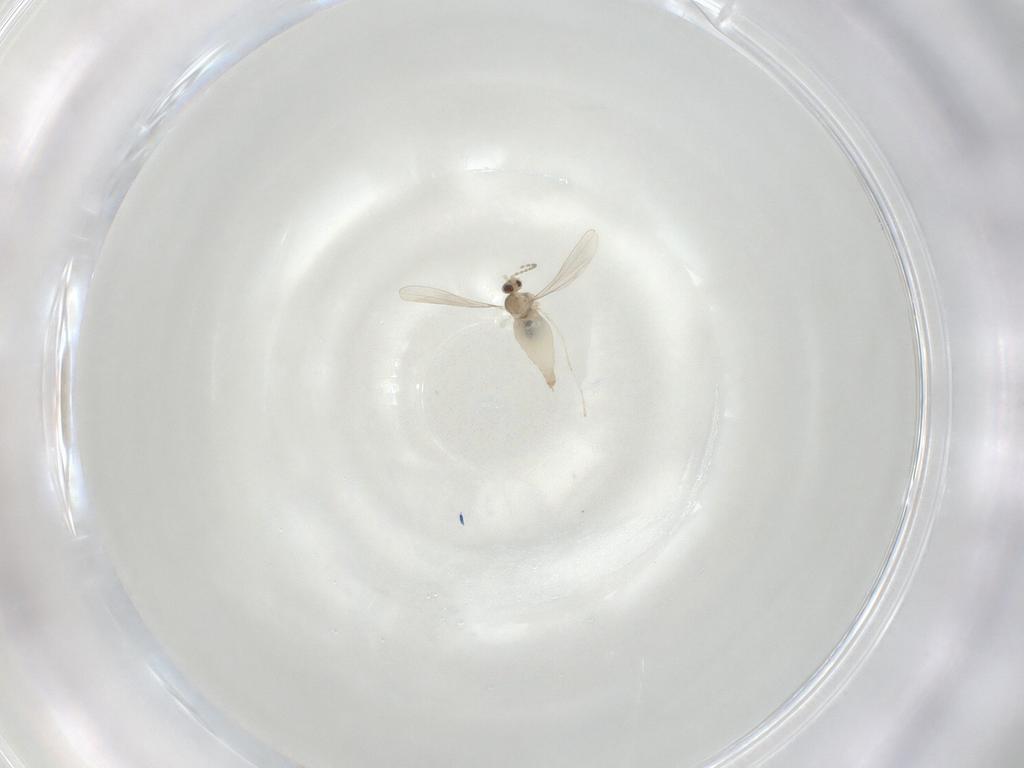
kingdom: Animalia
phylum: Arthropoda
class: Insecta
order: Diptera
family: Cecidomyiidae
